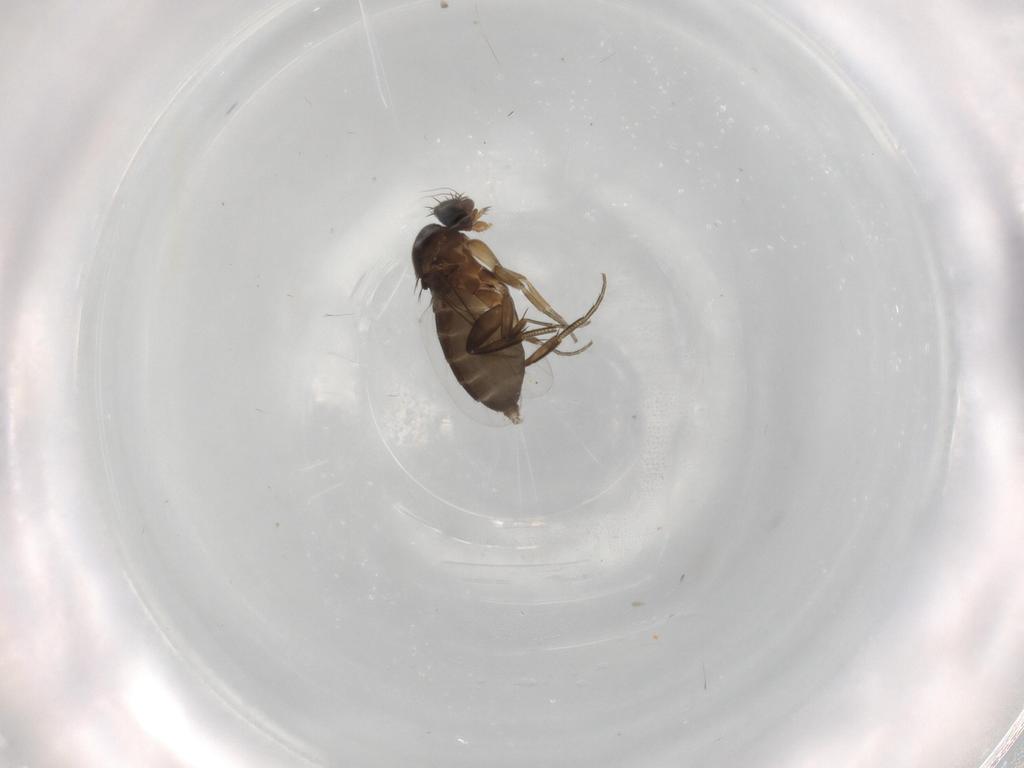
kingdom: Animalia
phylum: Arthropoda
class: Insecta
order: Diptera
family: Phoridae
